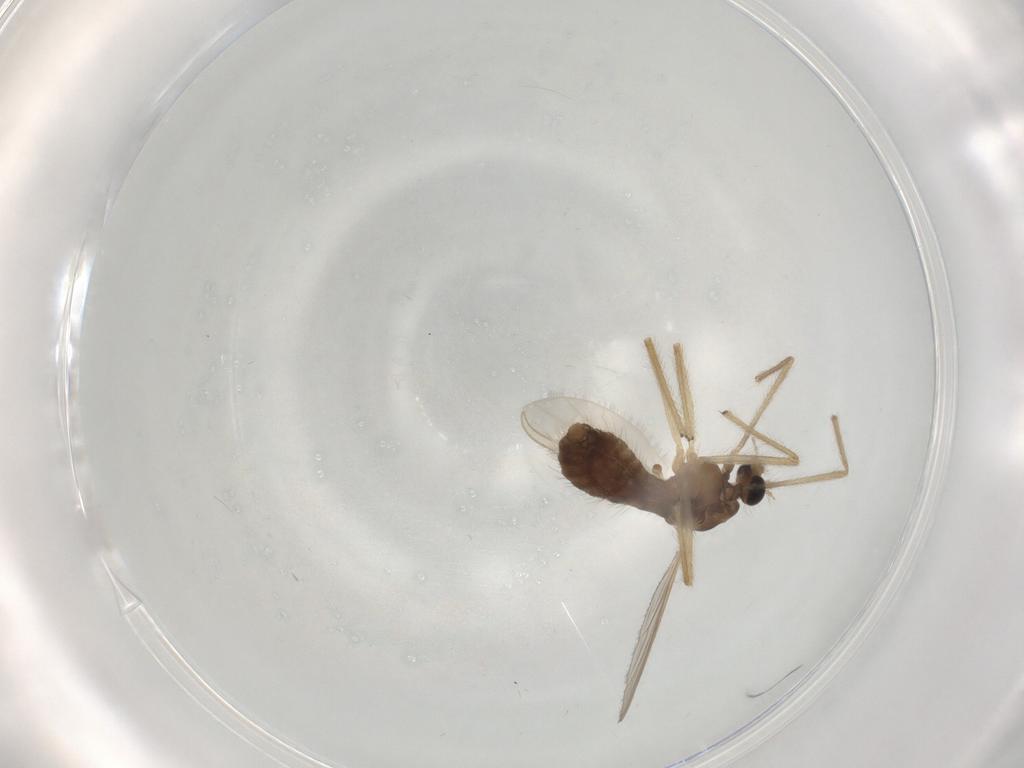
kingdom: Animalia
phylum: Arthropoda
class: Insecta
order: Diptera
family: Chironomidae
